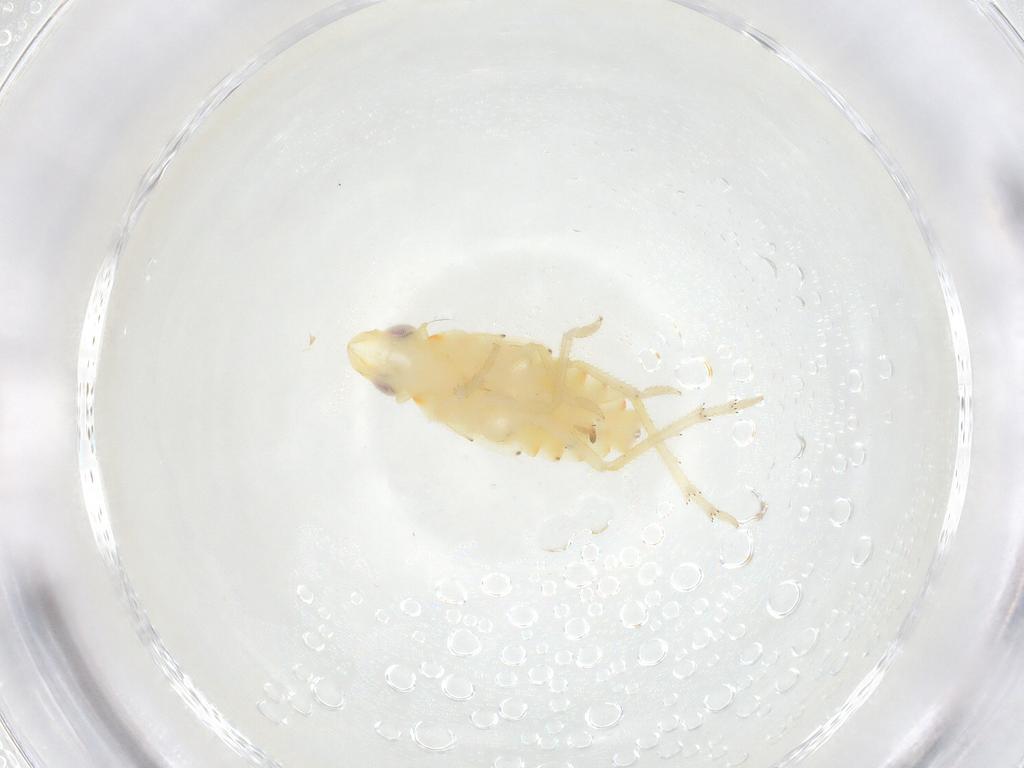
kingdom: Animalia
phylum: Arthropoda
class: Insecta
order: Hemiptera
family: Tropiduchidae
